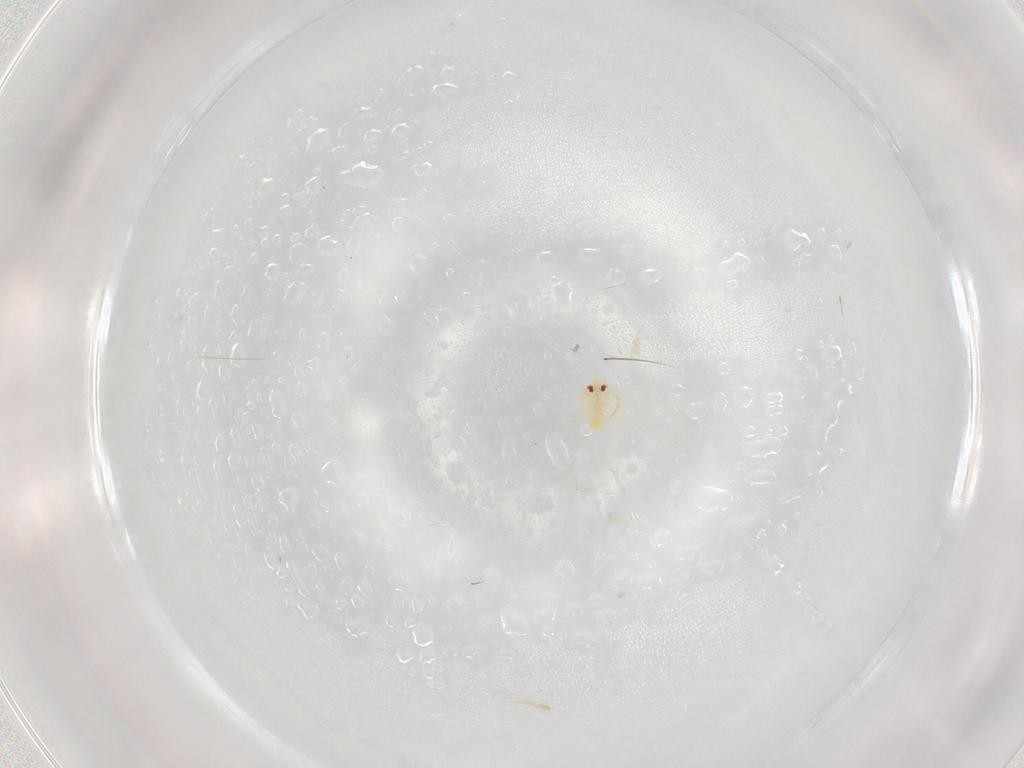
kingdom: Animalia
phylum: Arthropoda
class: Insecta
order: Hemiptera
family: Aleyrodidae
